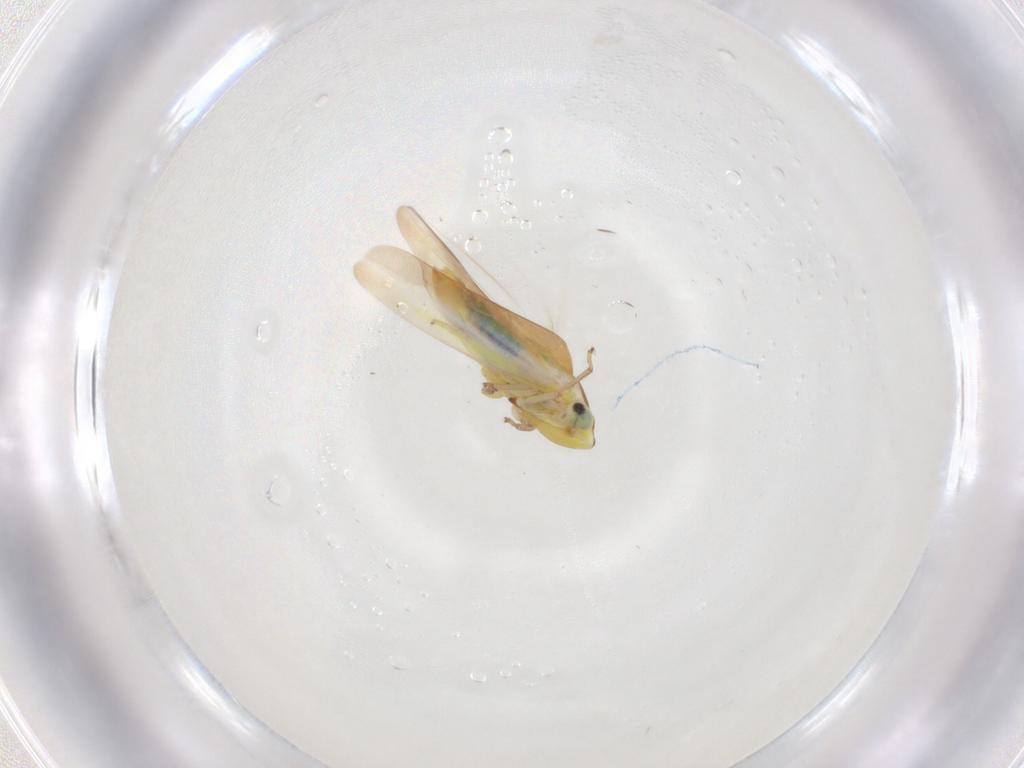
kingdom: Animalia
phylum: Arthropoda
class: Insecta
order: Hemiptera
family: Cicadellidae
